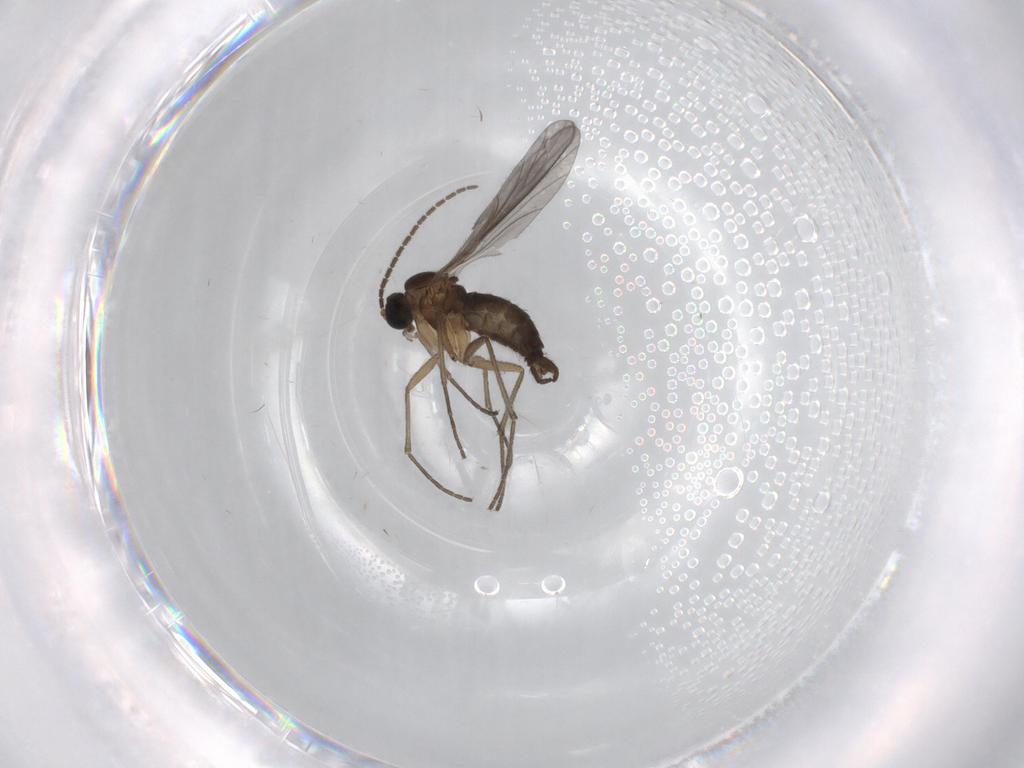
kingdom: Animalia
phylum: Arthropoda
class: Insecta
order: Diptera
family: Sciaridae
